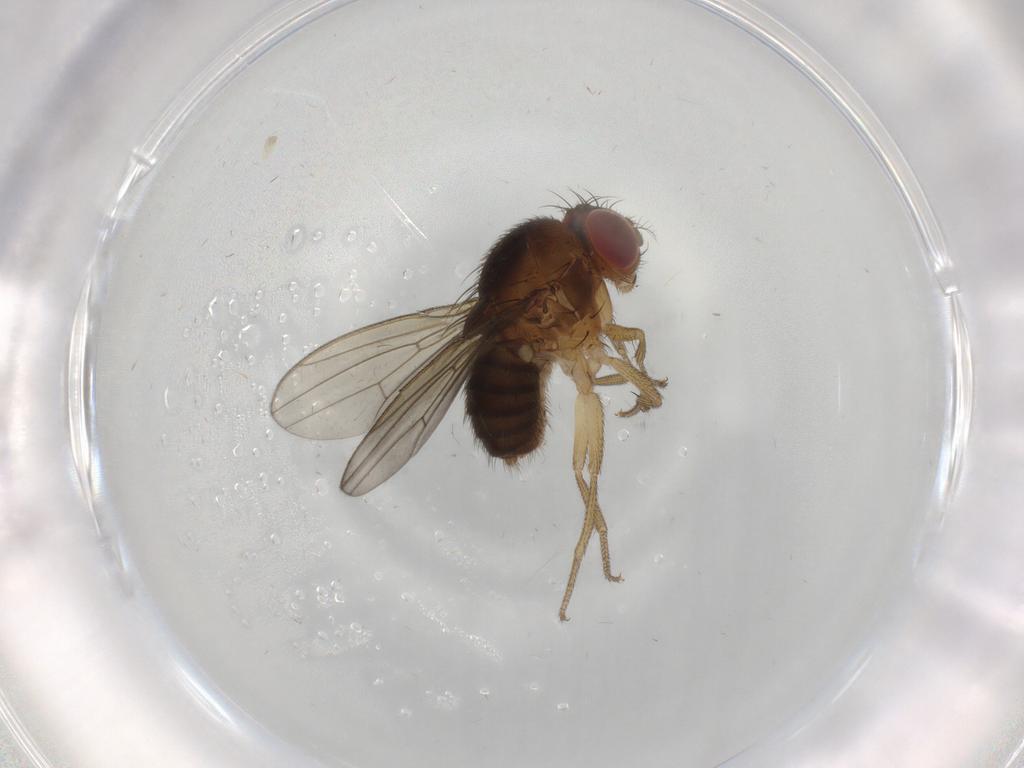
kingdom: Animalia
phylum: Arthropoda
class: Insecta
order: Diptera
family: Drosophilidae
